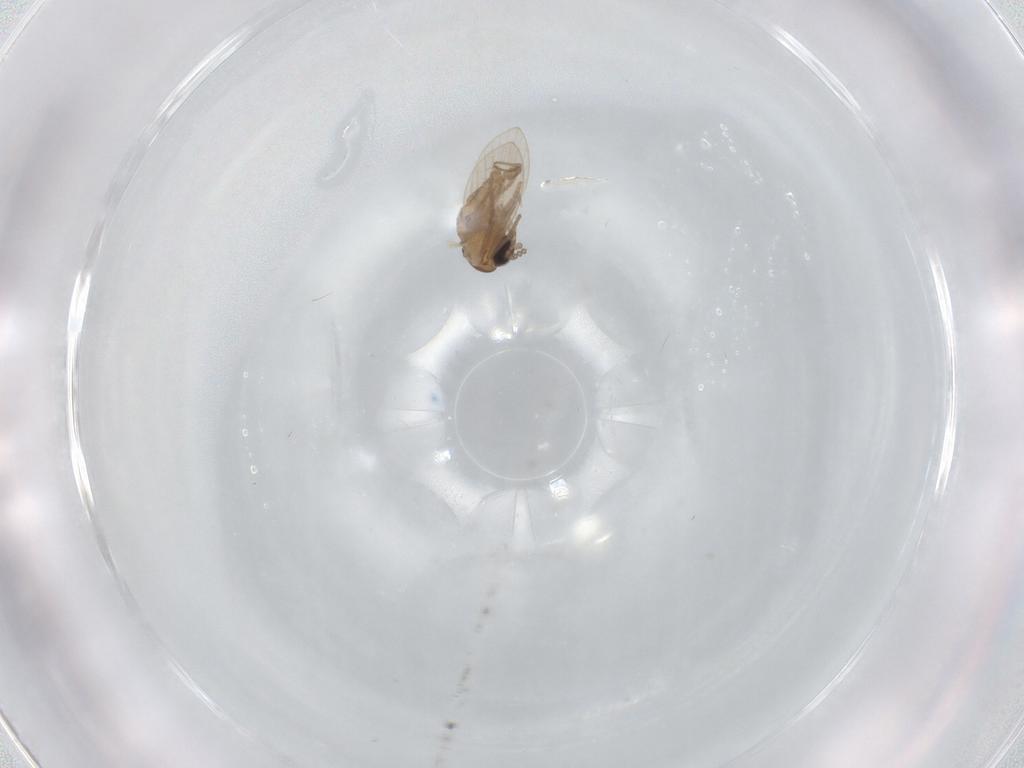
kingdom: Animalia
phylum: Arthropoda
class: Insecta
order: Diptera
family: Psychodidae
